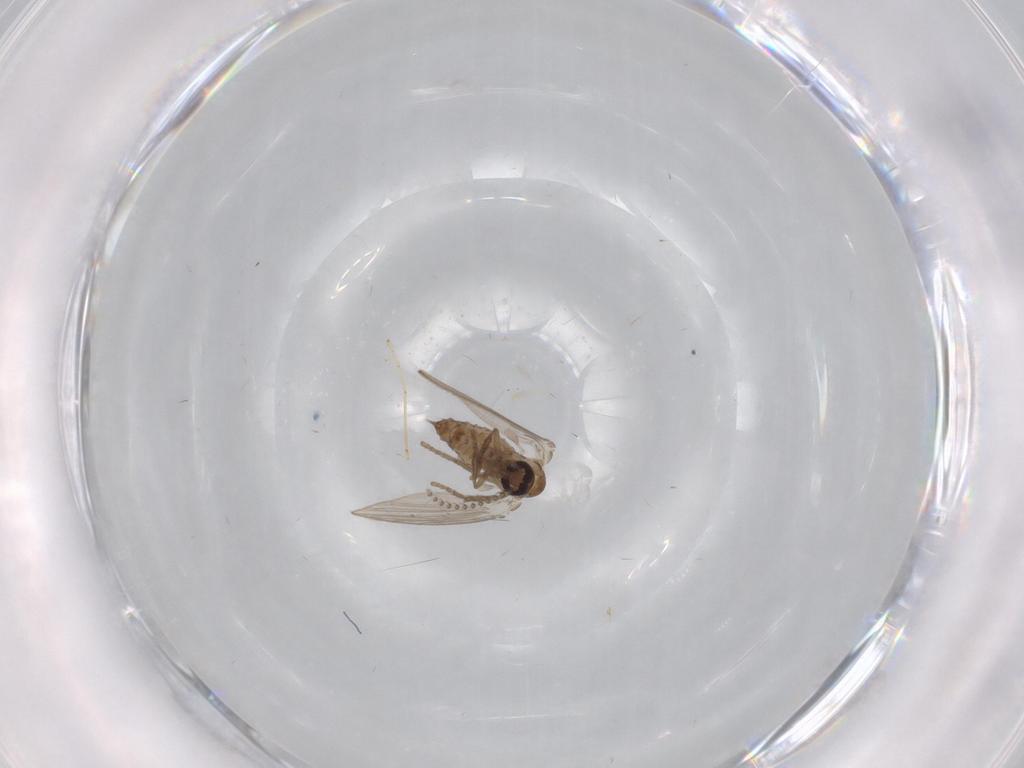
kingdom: Animalia
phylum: Arthropoda
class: Insecta
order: Diptera
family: Psychodidae
